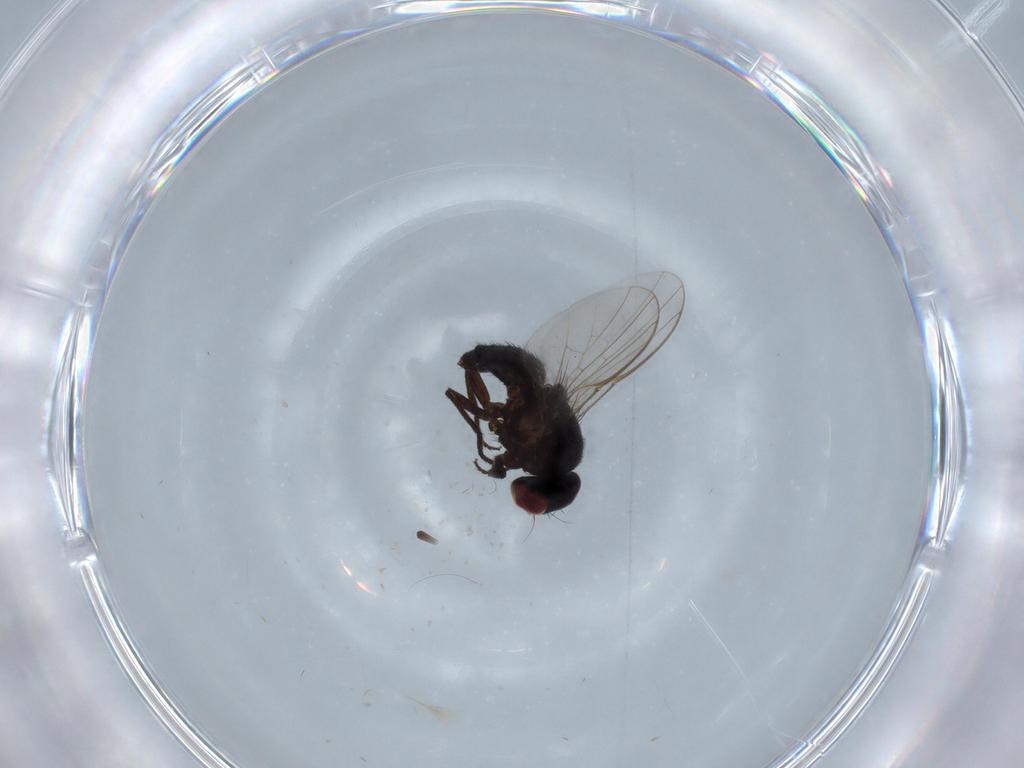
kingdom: Animalia
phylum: Arthropoda
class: Insecta
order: Diptera
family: Agromyzidae
